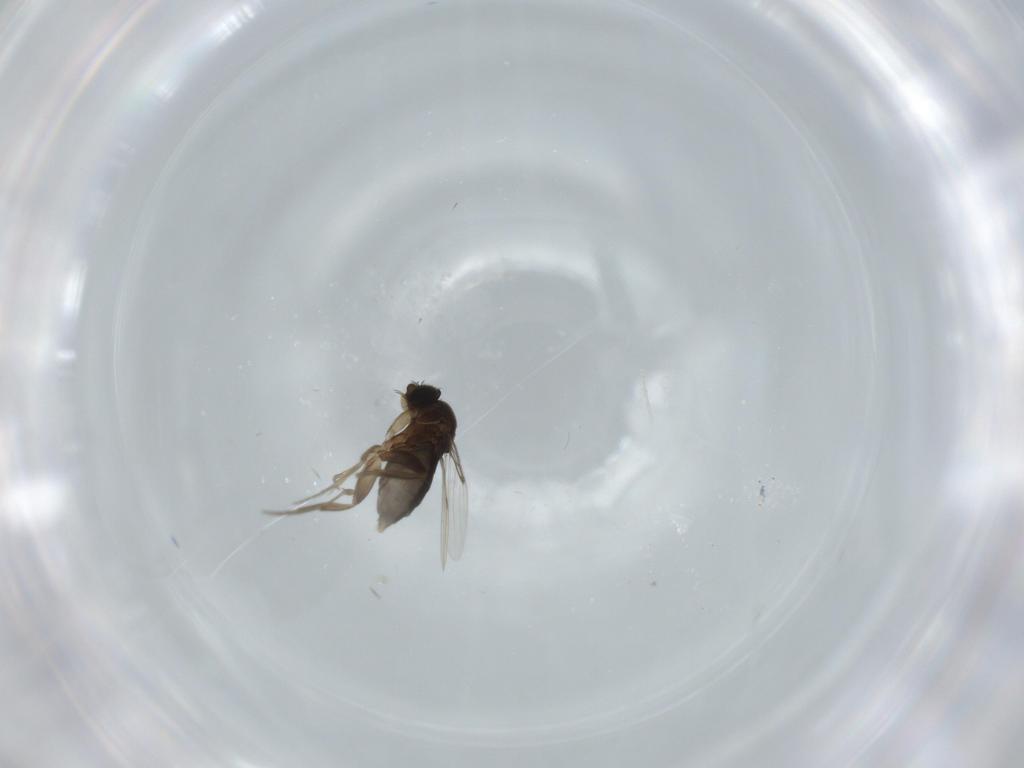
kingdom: Animalia
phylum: Arthropoda
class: Insecta
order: Diptera
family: Phoridae
